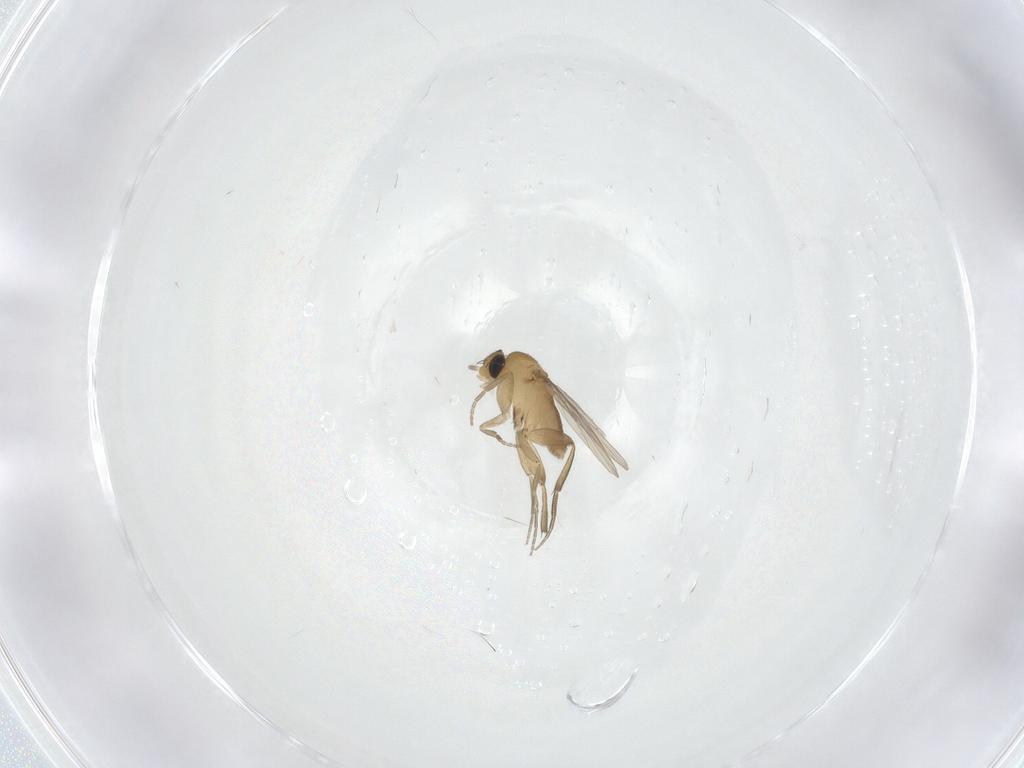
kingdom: Animalia
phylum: Arthropoda
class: Insecta
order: Diptera
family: Phoridae
